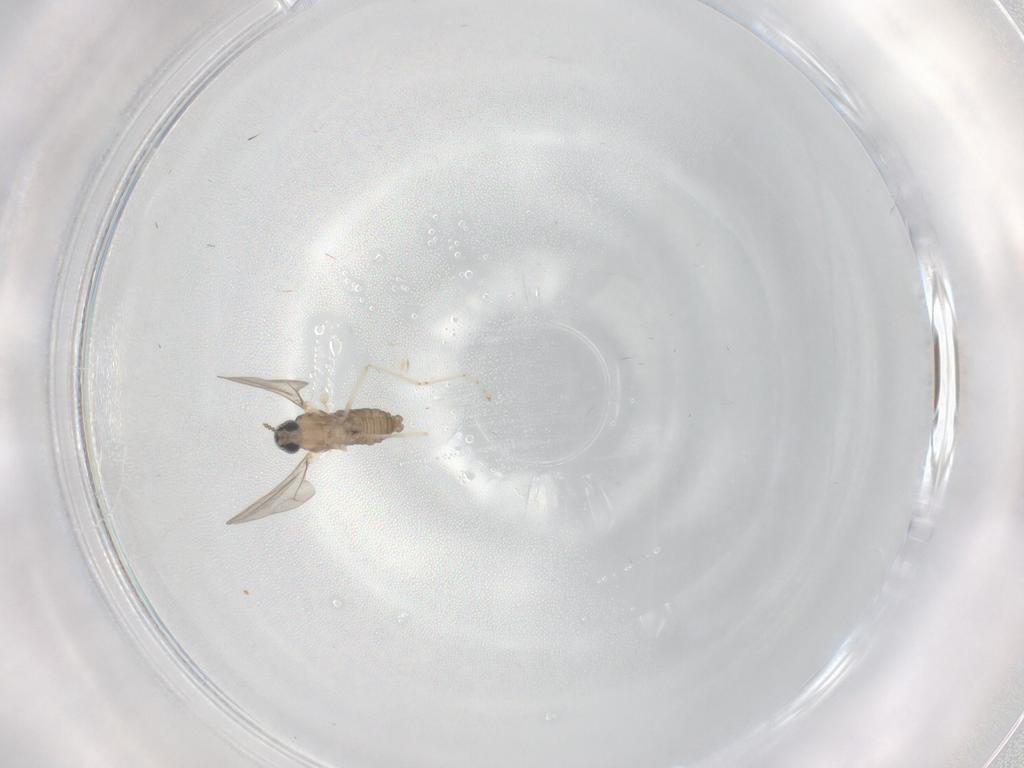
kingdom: Animalia
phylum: Arthropoda
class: Insecta
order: Diptera
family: Cecidomyiidae
